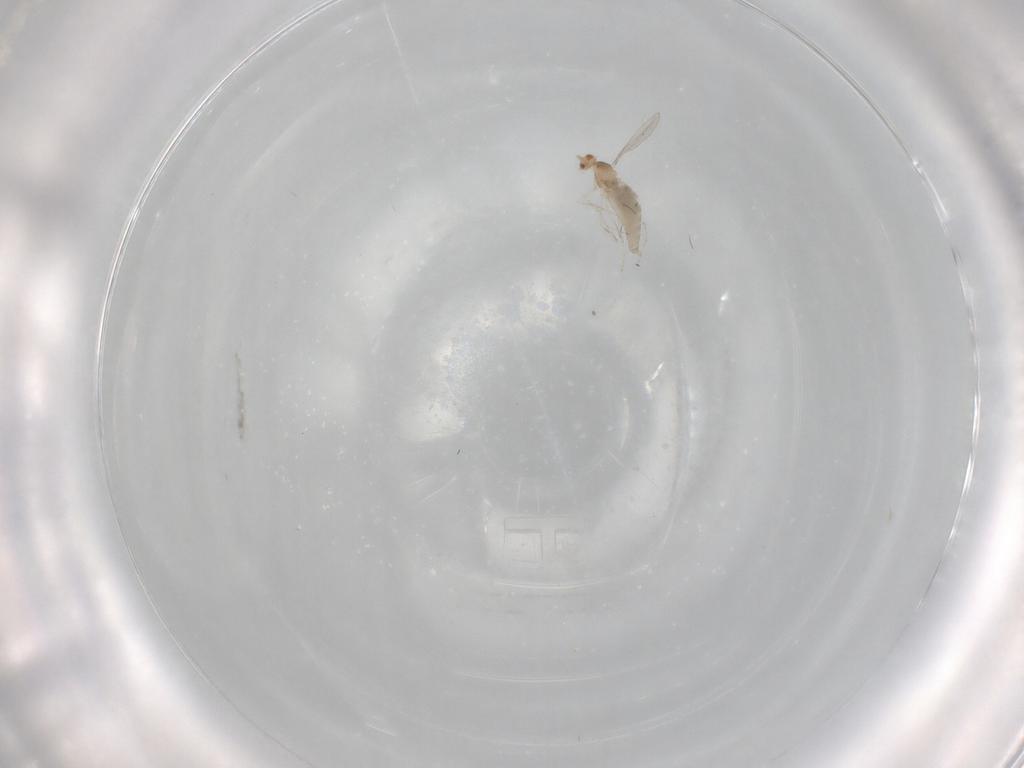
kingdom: Animalia
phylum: Arthropoda
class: Insecta
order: Diptera
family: Cecidomyiidae
